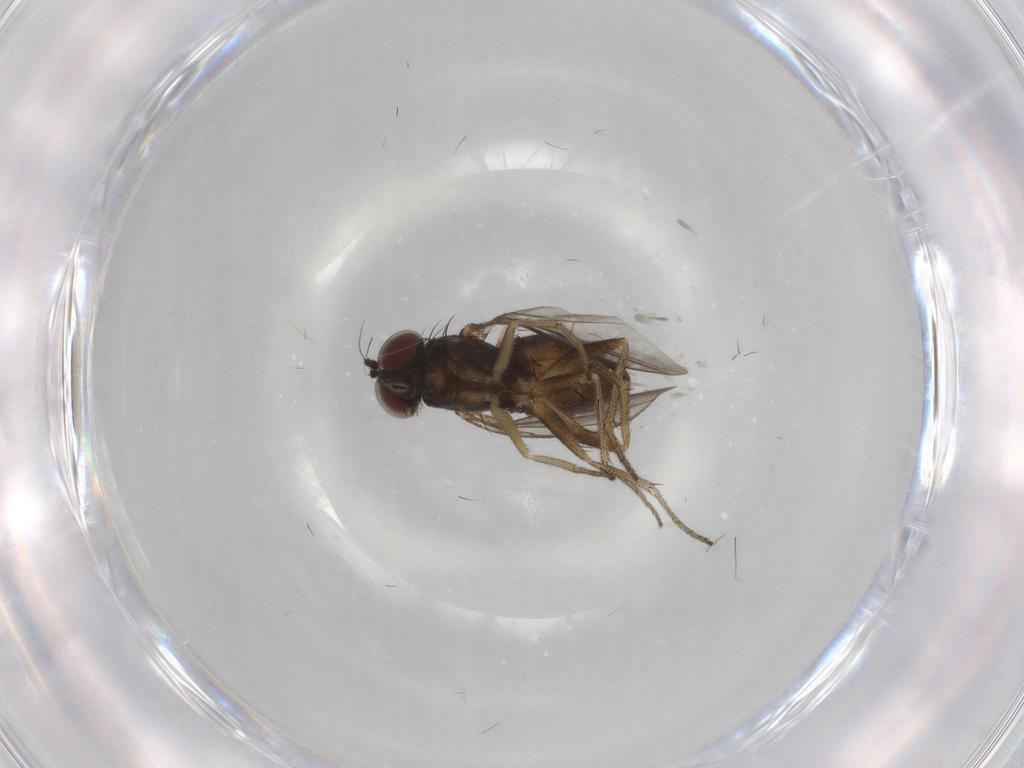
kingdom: Animalia
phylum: Arthropoda
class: Insecta
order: Diptera
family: Dolichopodidae
